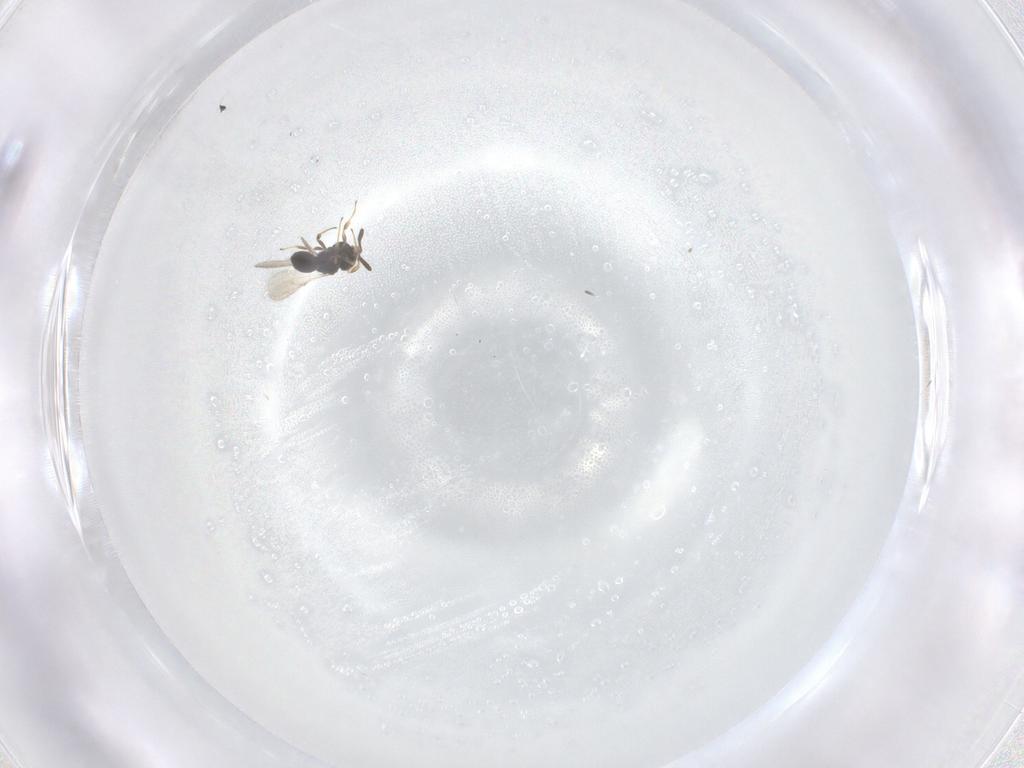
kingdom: Animalia
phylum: Arthropoda
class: Insecta
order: Hymenoptera
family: Scelionidae
